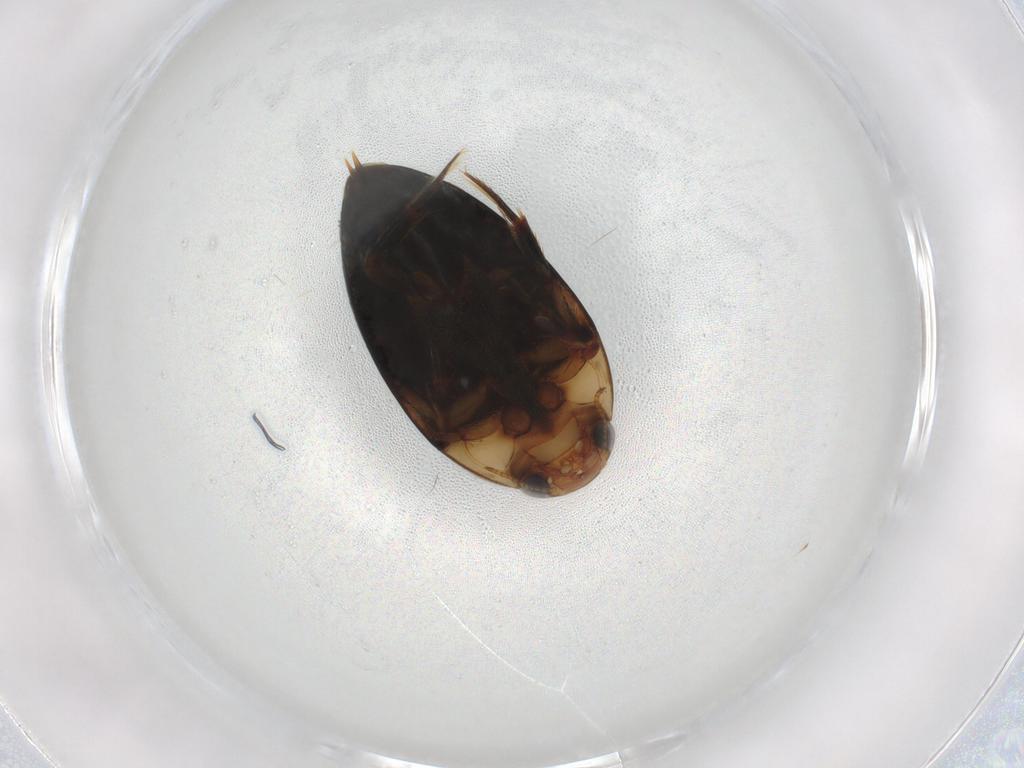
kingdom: Animalia
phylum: Arthropoda
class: Insecta
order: Coleoptera
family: Noteridae
